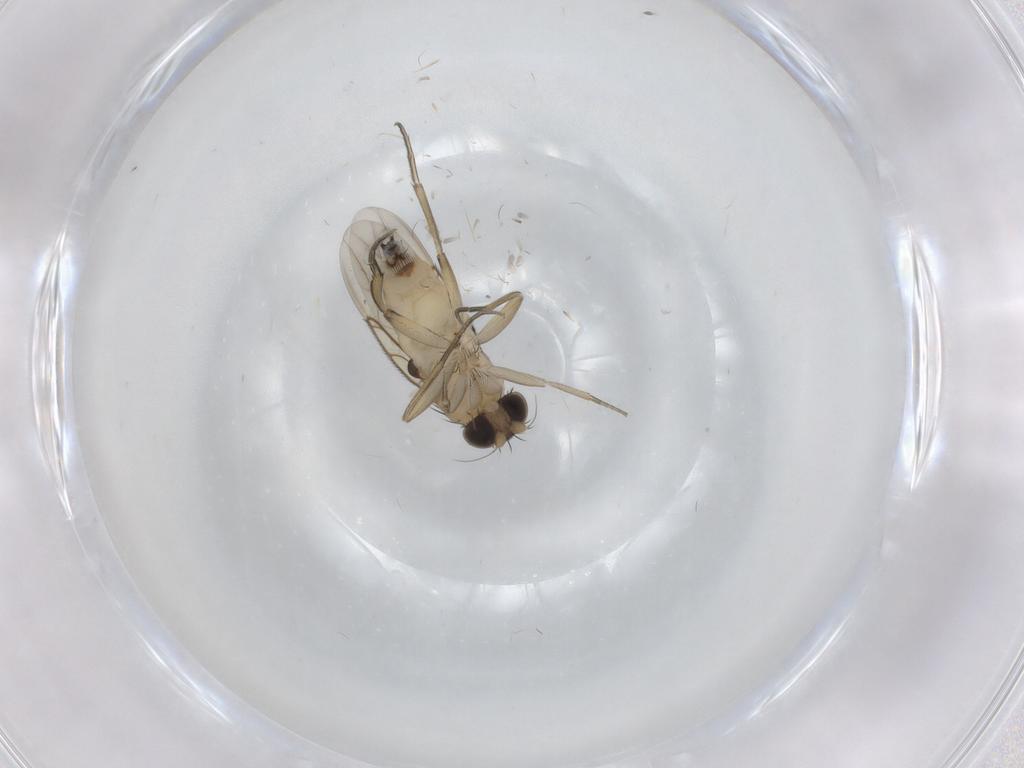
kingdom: Animalia
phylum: Arthropoda
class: Insecta
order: Diptera
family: Phoridae
